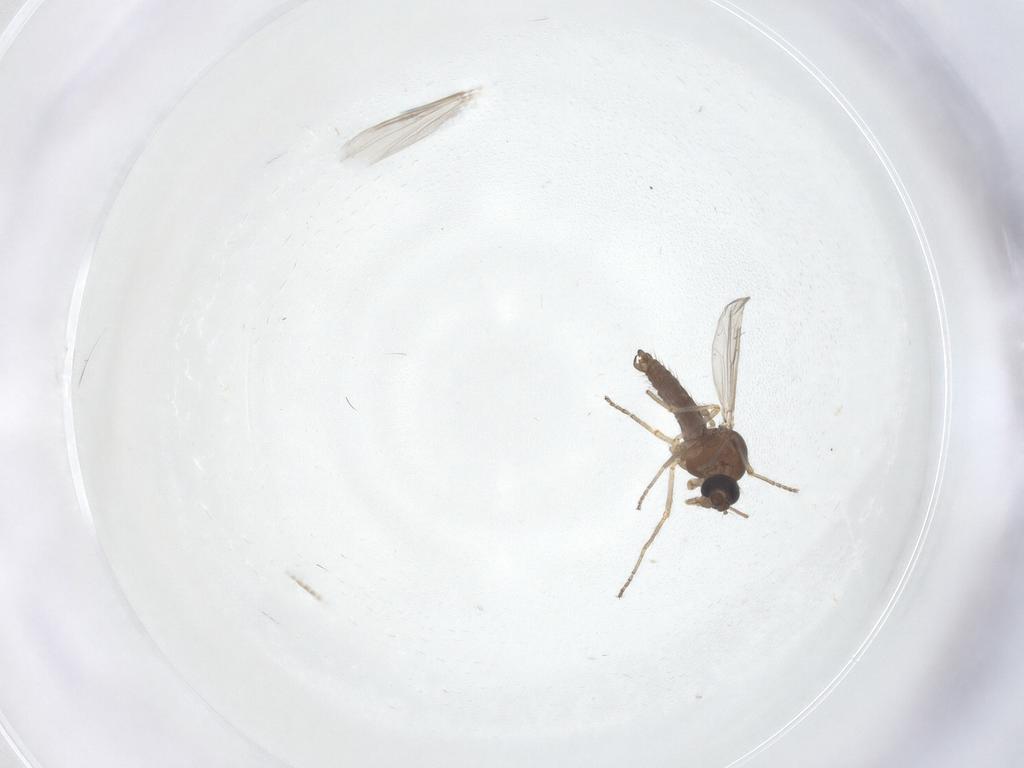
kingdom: Animalia
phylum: Arthropoda
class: Insecta
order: Diptera
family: Ceratopogonidae
